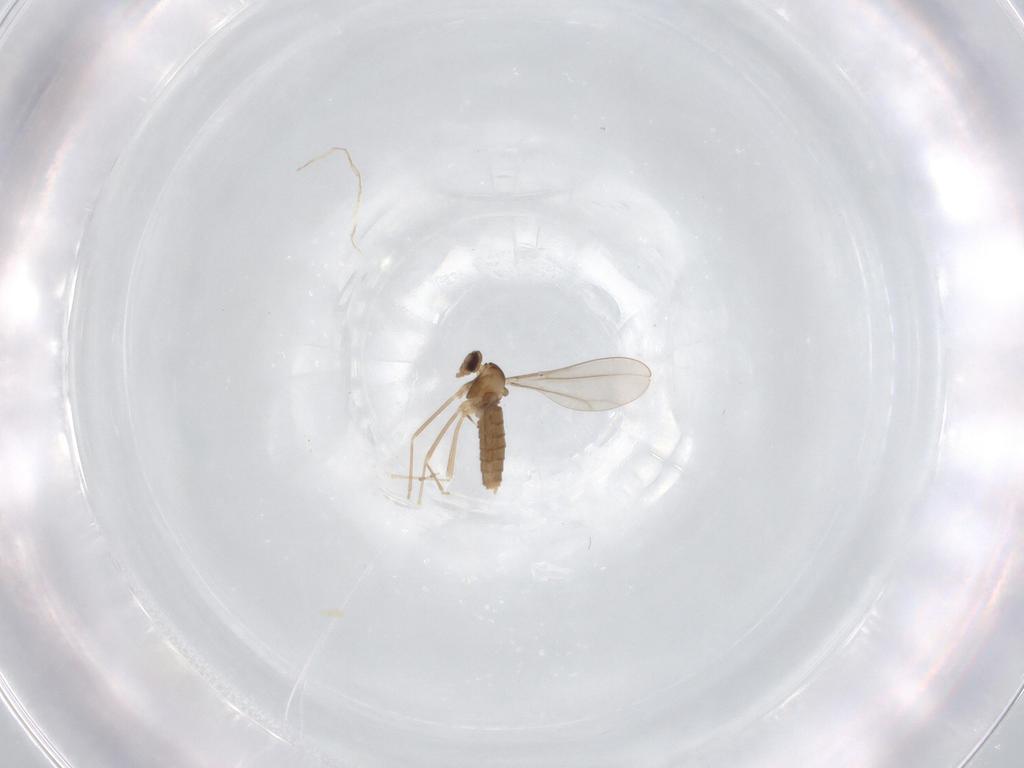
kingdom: Animalia
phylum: Arthropoda
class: Insecta
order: Diptera
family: Cecidomyiidae
